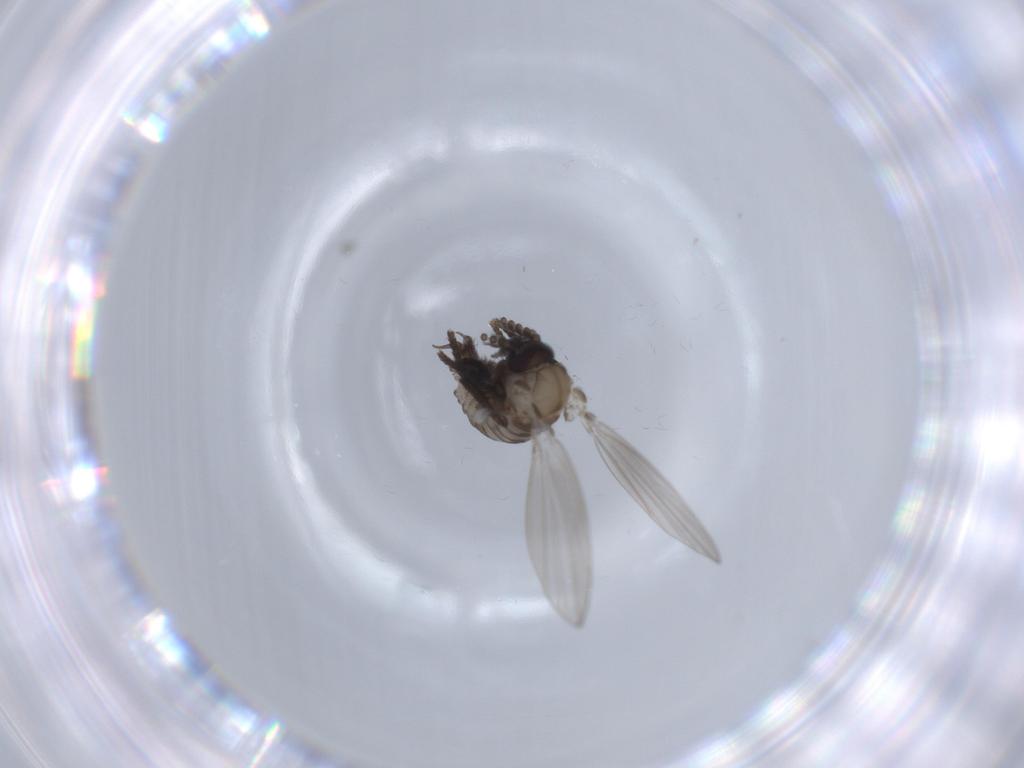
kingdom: Animalia
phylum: Arthropoda
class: Insecta
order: Diptera
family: Psychodidae
